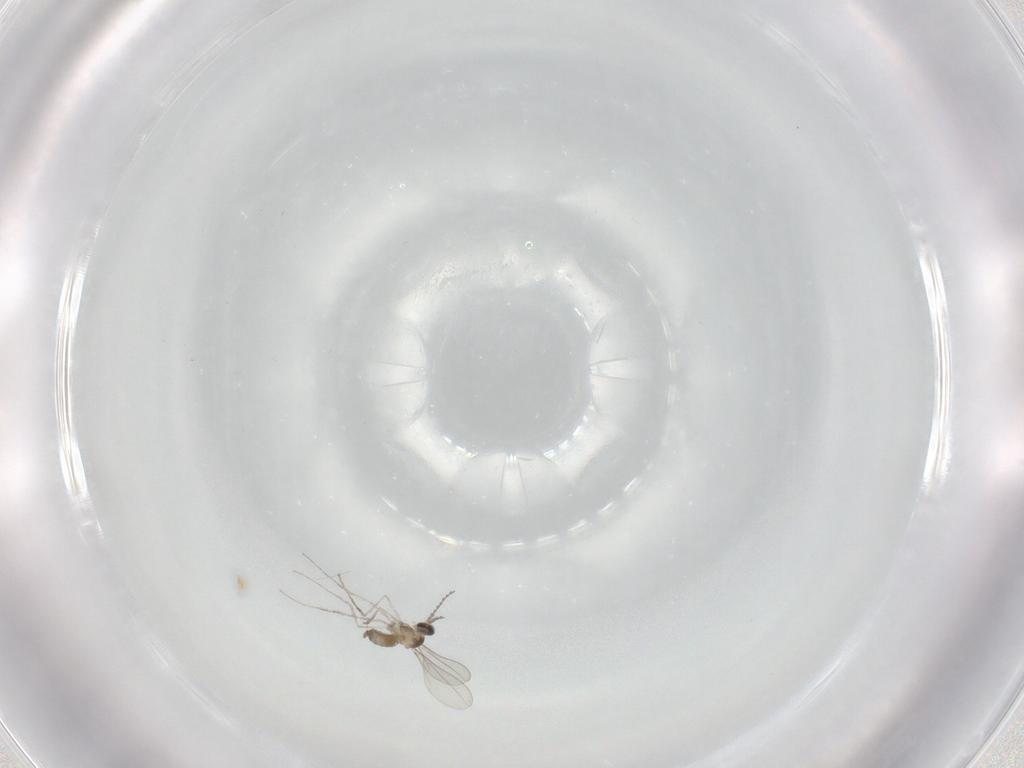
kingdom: Animalia
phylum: Arthropoda
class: Insecta
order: Diptera
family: Cecidomyiidae
